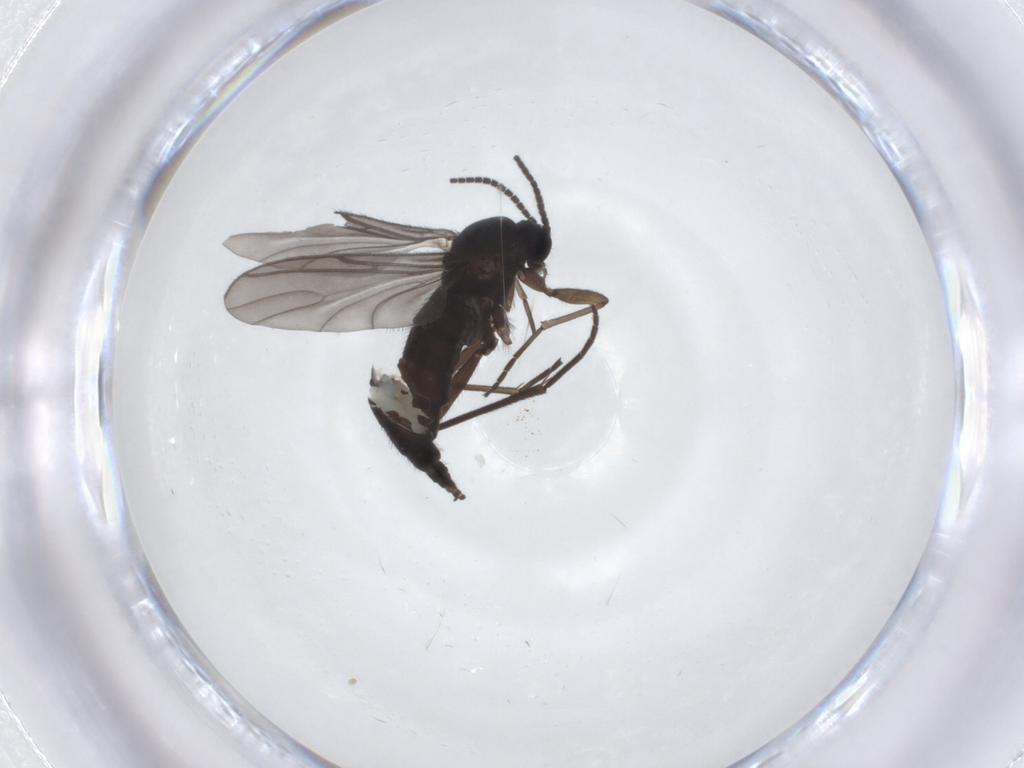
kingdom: Animalia
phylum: Arthropoda
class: Insecta
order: Diptera
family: Sciaridae
